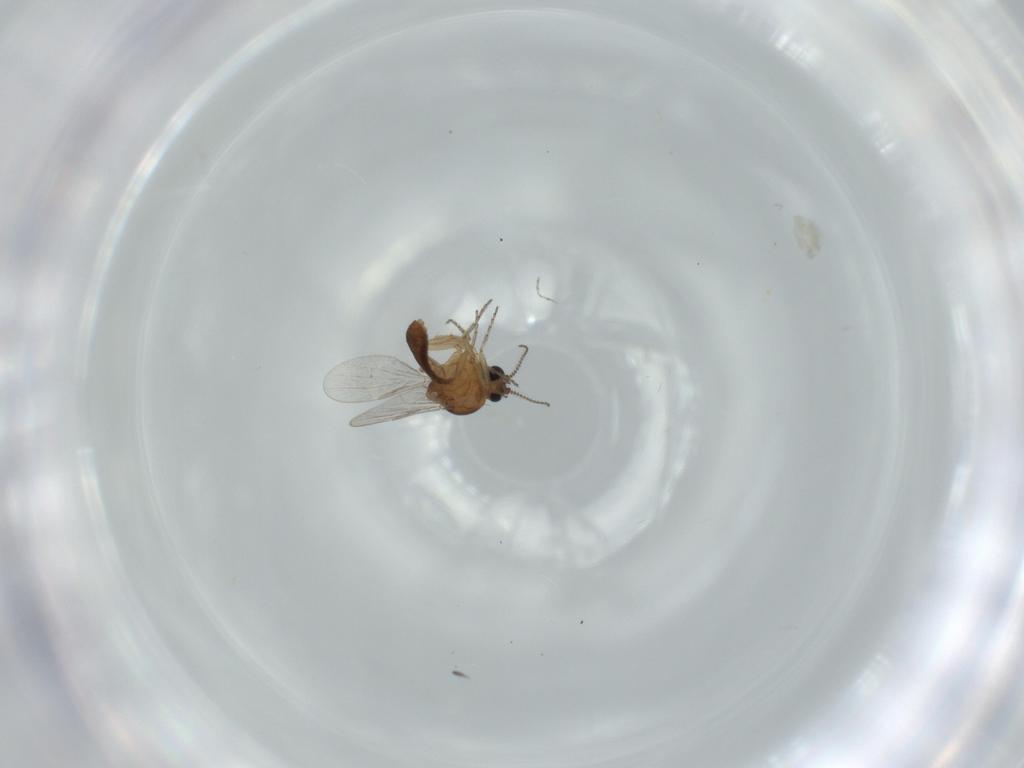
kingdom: Animalia
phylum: Arthropoda
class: Insecta
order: Diptera
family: Ceratopogonidae
